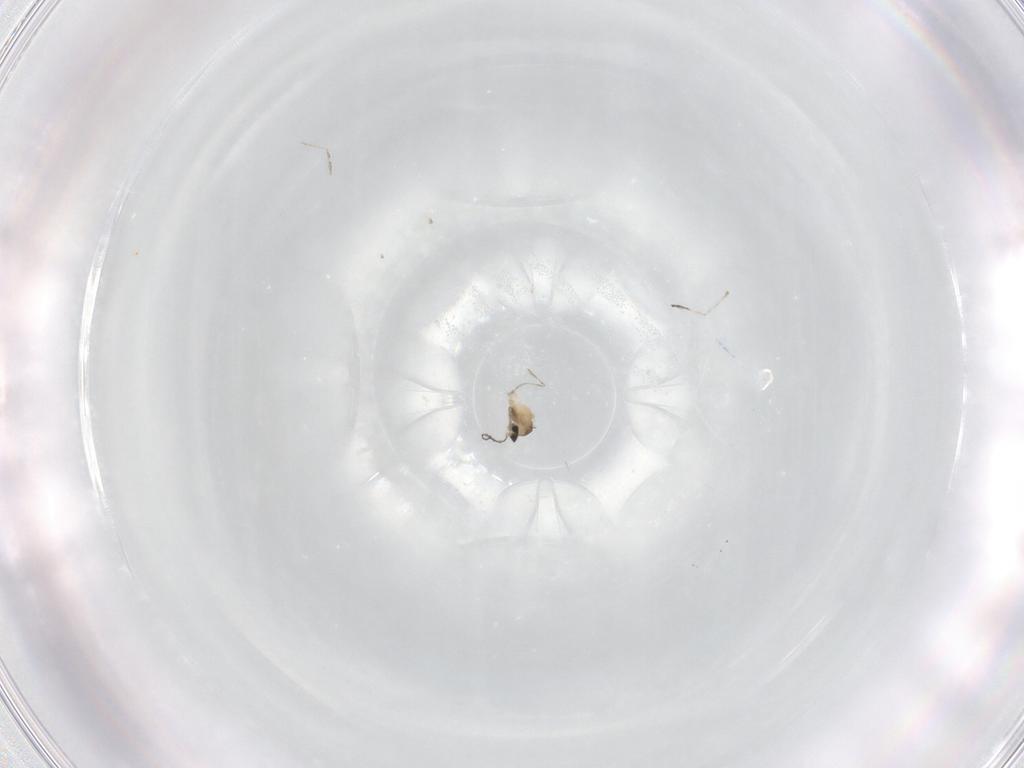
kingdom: Animalia
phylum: Arthropoda
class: Insecta
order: Diptera
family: Cecidomyiidae
